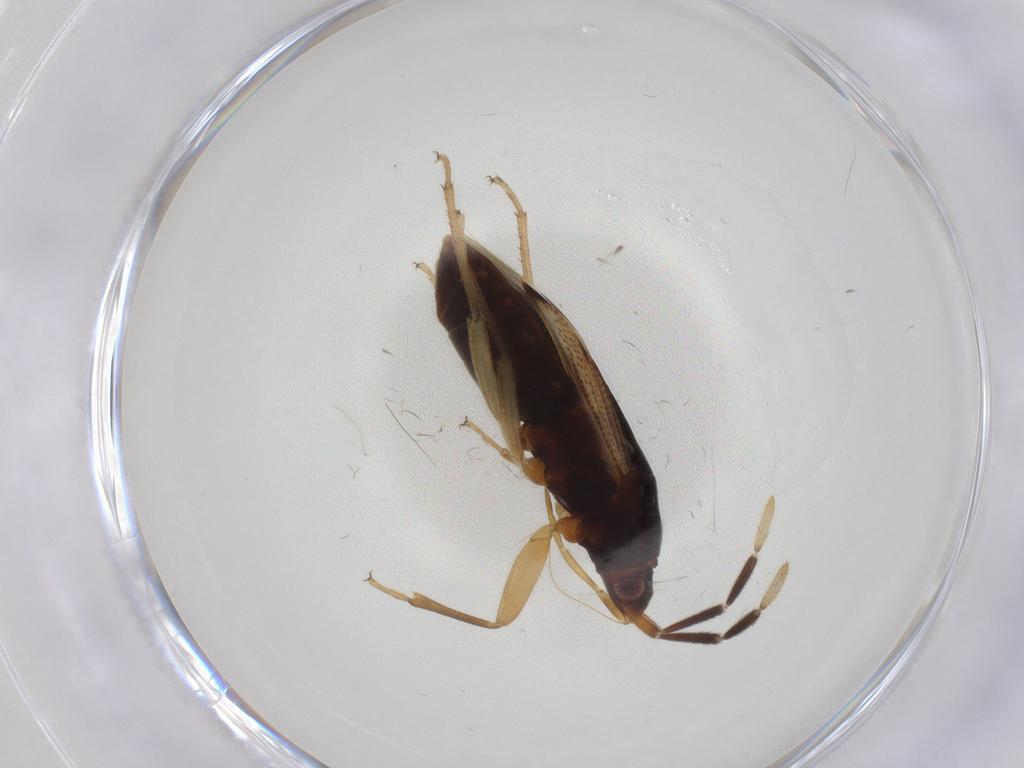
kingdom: Animalia
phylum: Arthropoda
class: Insecta
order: Hemiptera
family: Rhyparochromidae
